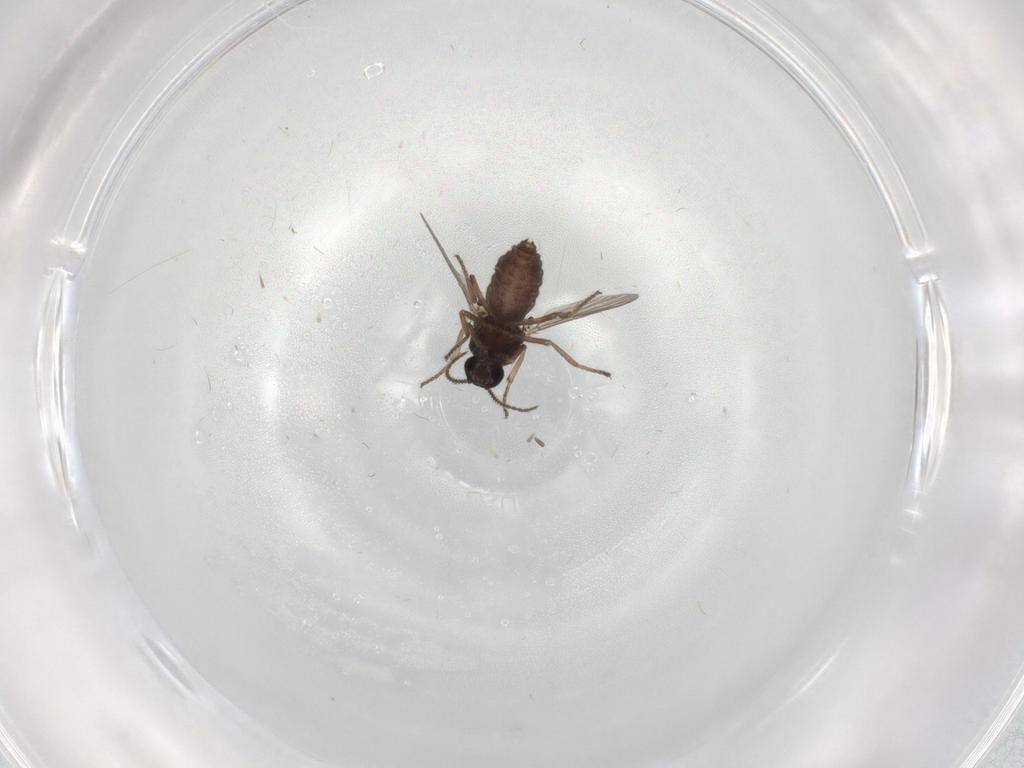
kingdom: Animalia
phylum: Arthropoda
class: Insecta
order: Diptera
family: Ceratopogonidae
